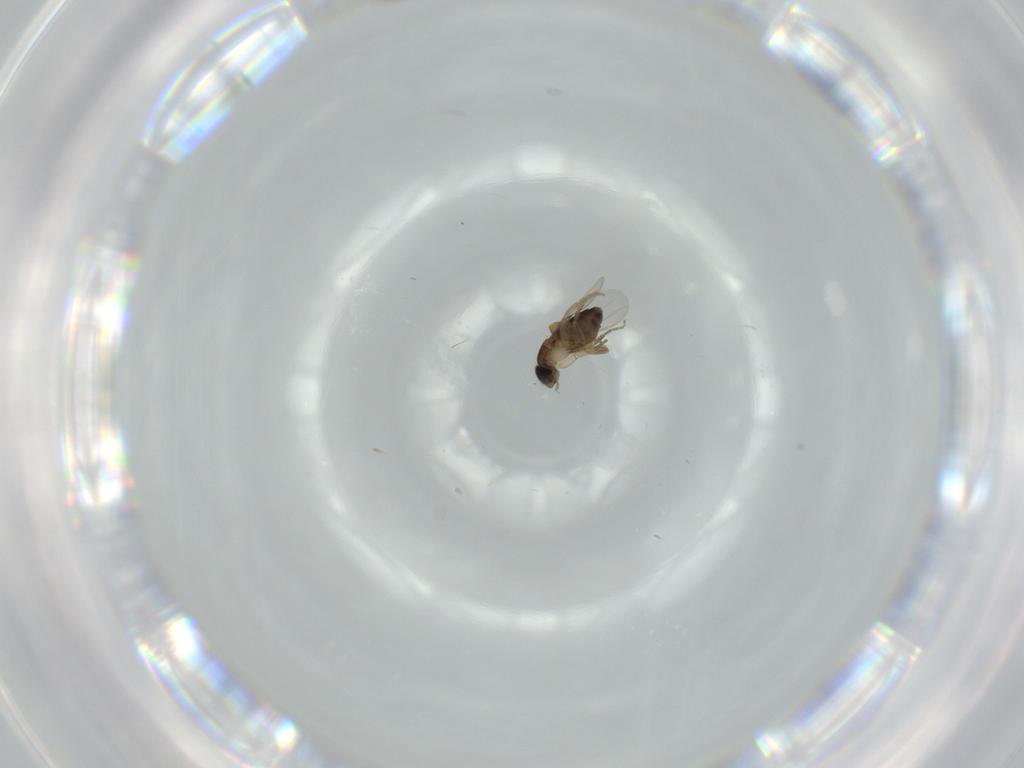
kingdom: Animalia
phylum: Arthropoda
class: Insecta
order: Diptera
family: Phoridae
